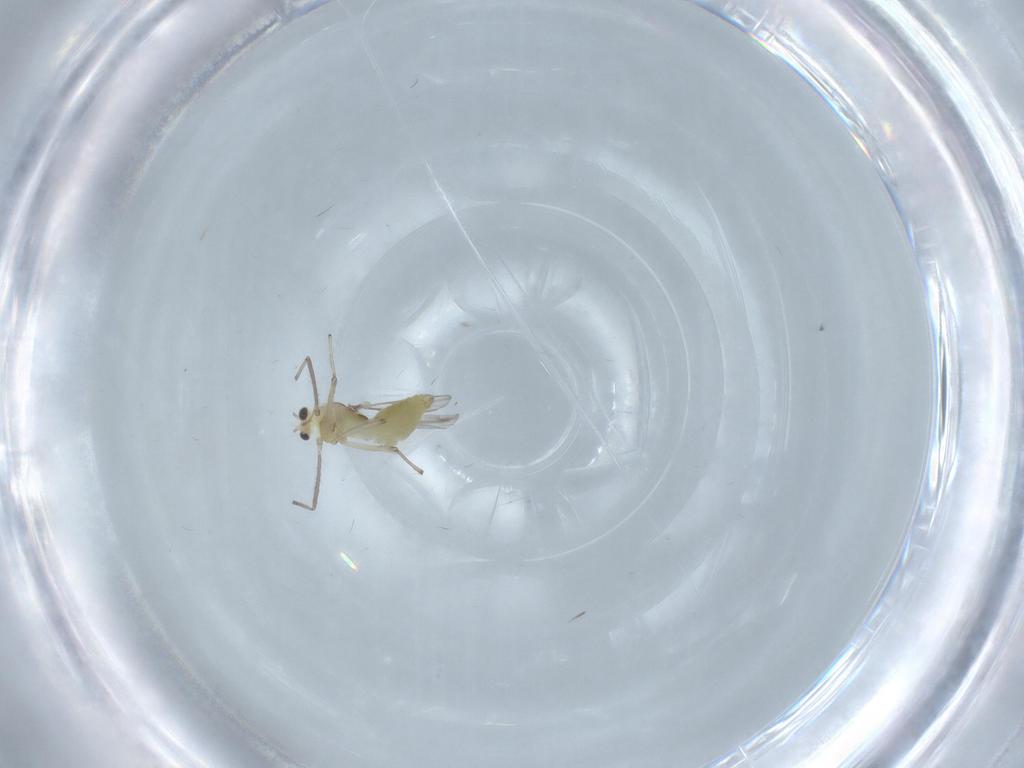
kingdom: Animalia
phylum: Arthropoda
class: Insecta
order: Diptera
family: Chironomidae
